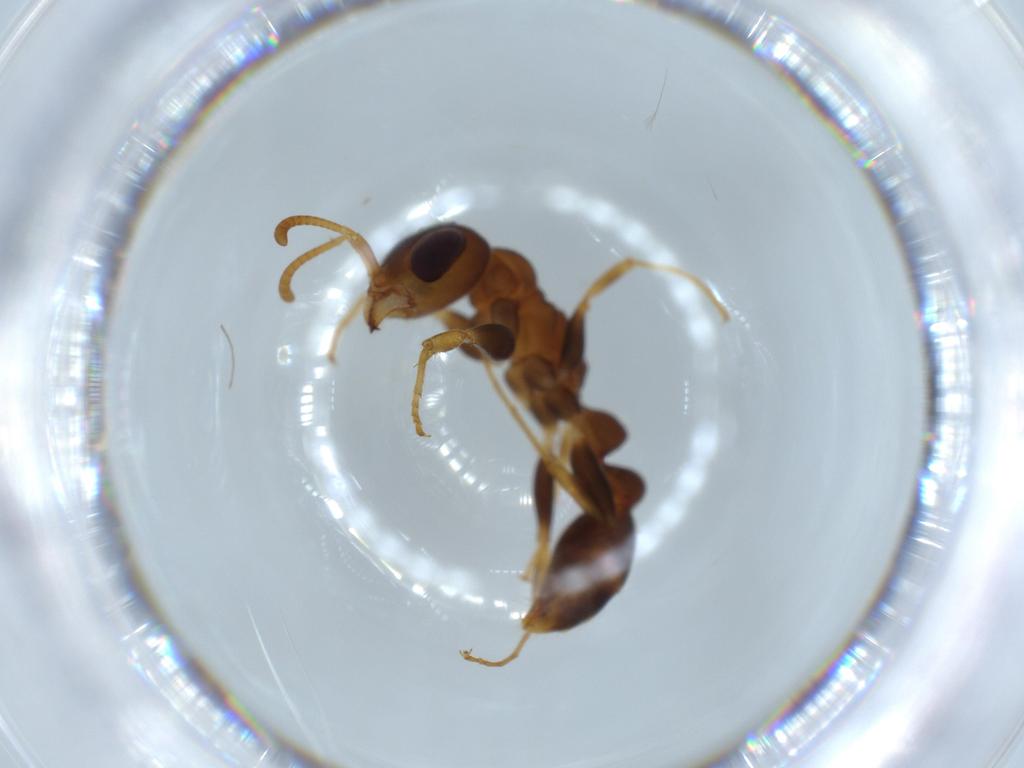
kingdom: Animalia
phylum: Arthropoda
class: Insecta
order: Hymenoptera
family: Formicidae
